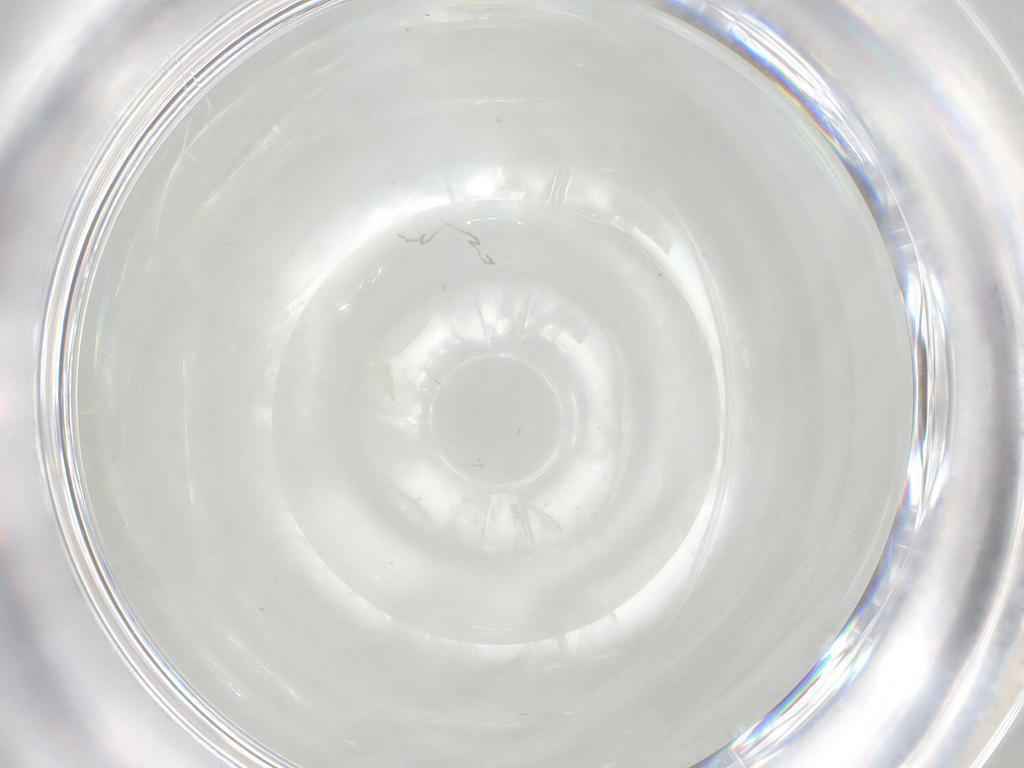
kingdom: Animalia
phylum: Arthropoda
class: Arachnida
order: Trombidiformes
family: Eupodidae
